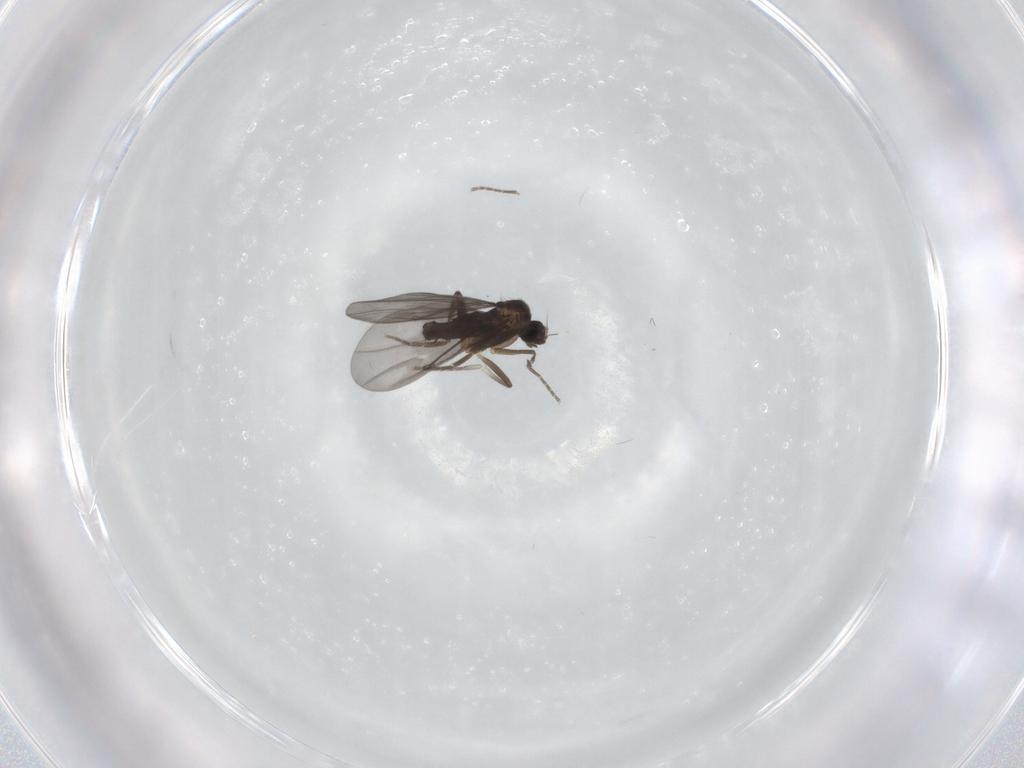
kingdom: Animalia
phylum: Arthropoda
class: Insecta
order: Diptera
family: Phoridae
